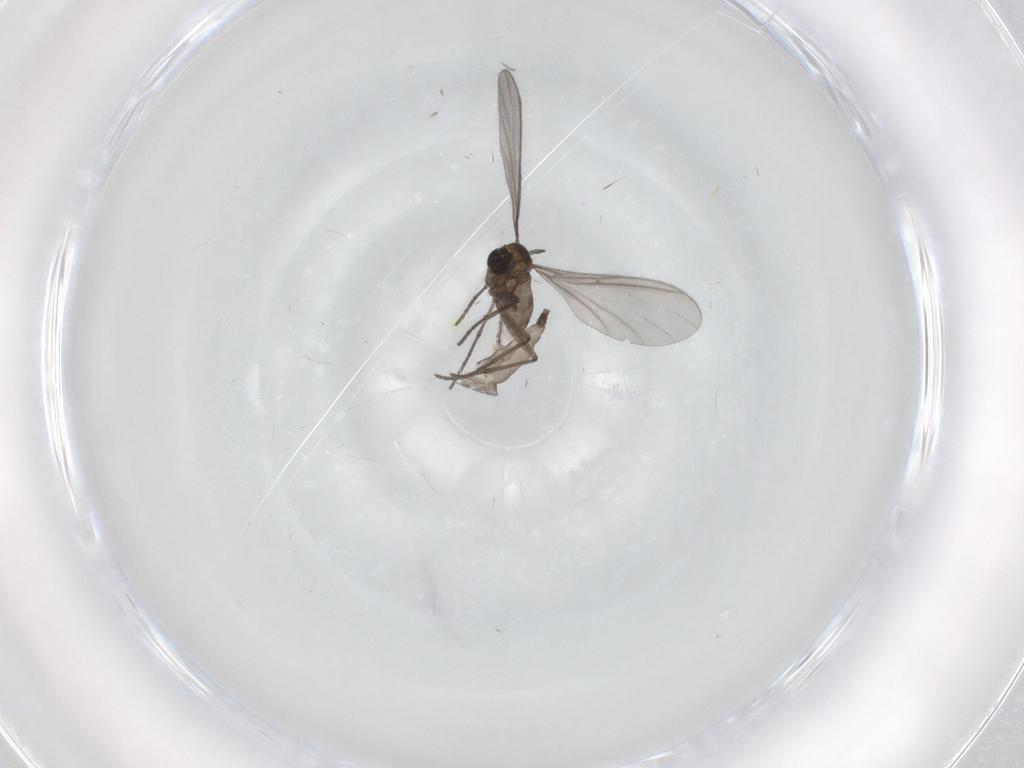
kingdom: Animalia
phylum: Arthropoda
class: Insecta
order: Diptera
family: Sciaridae
